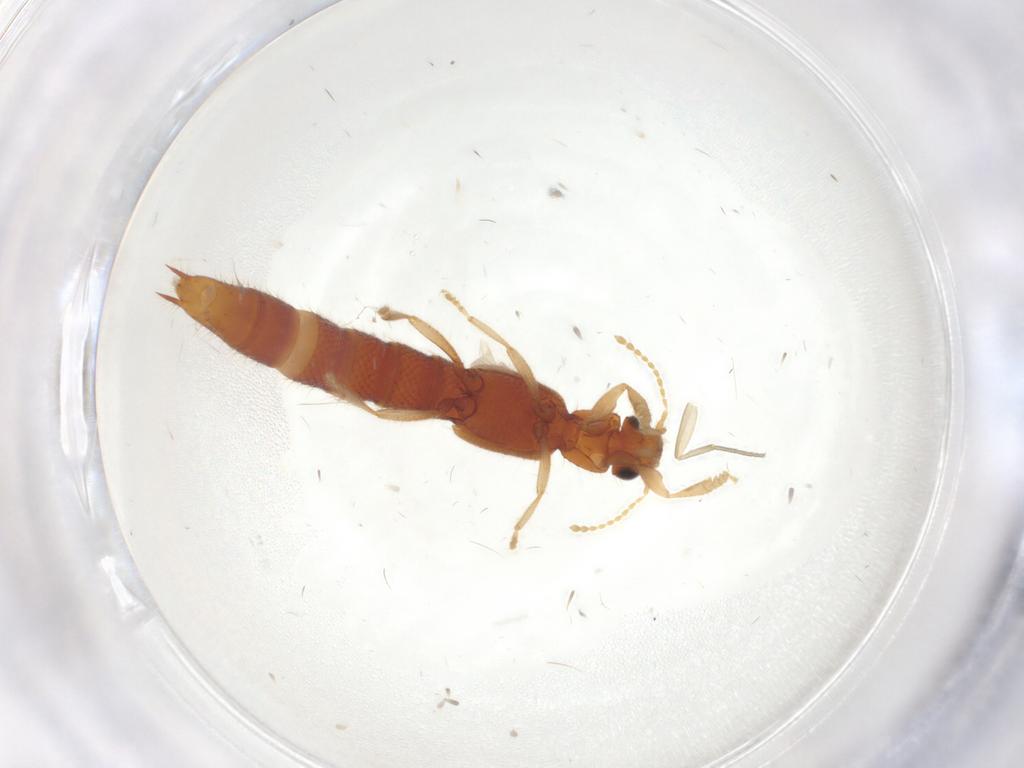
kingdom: Animalia
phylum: Arthropoda
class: Insecta
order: Coleoptera
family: Staphylinidae
